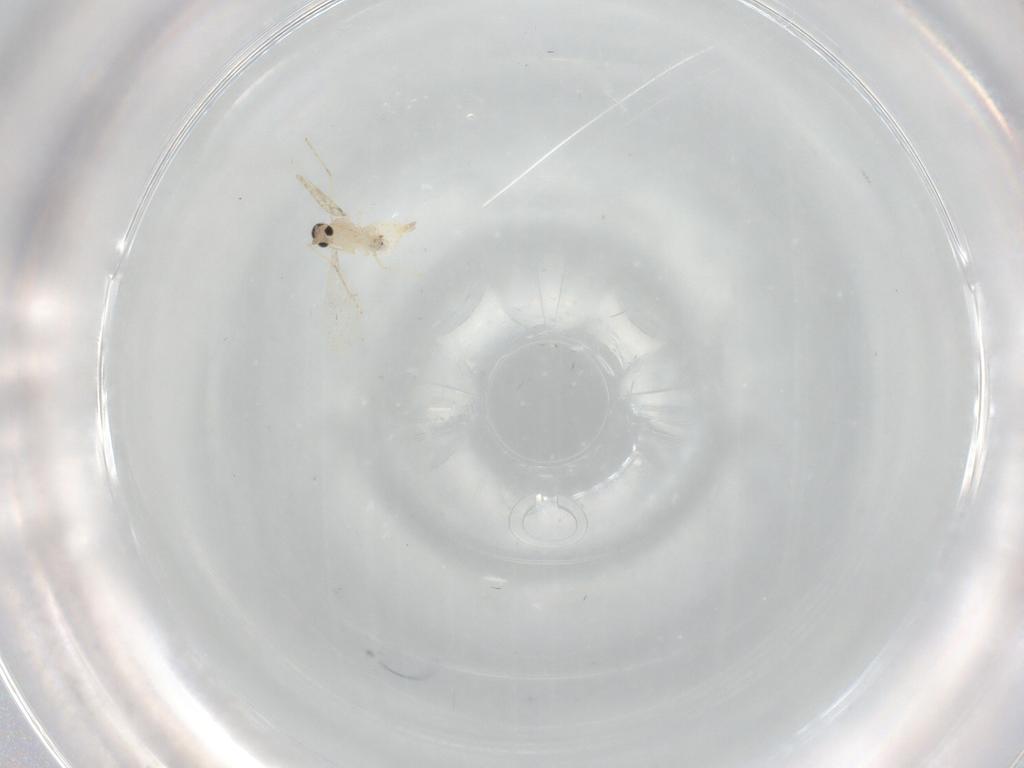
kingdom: Animalia
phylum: Arthropoda
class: Insecta
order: Diptera
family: Cecidomyiidae
